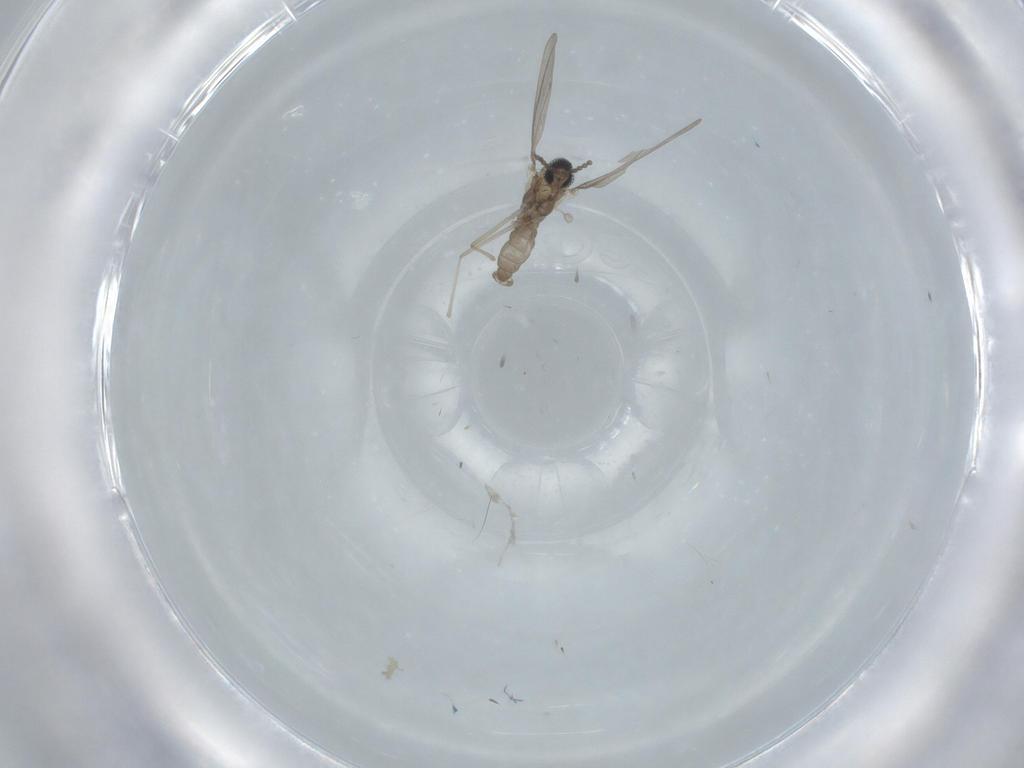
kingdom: Animalia
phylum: Arthropoda
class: Insecta
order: Diptera
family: Cecidomyiidae
